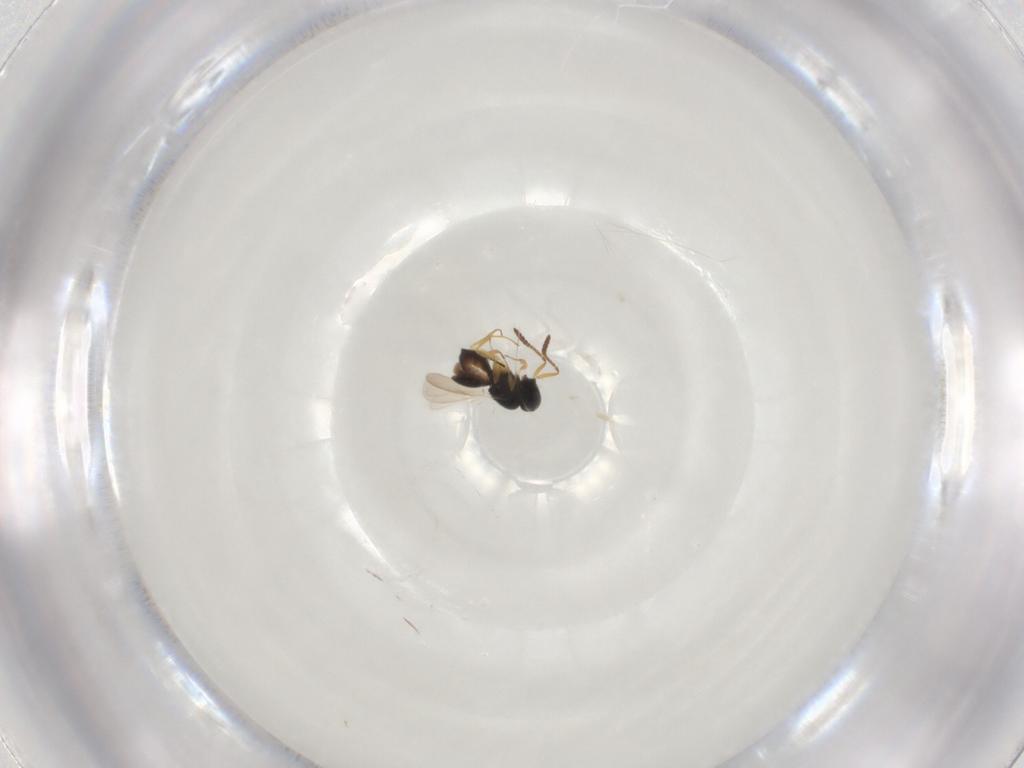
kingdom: Animalia
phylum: Arthropoda
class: Insecta
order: Hymenoptera
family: Scelionidae
